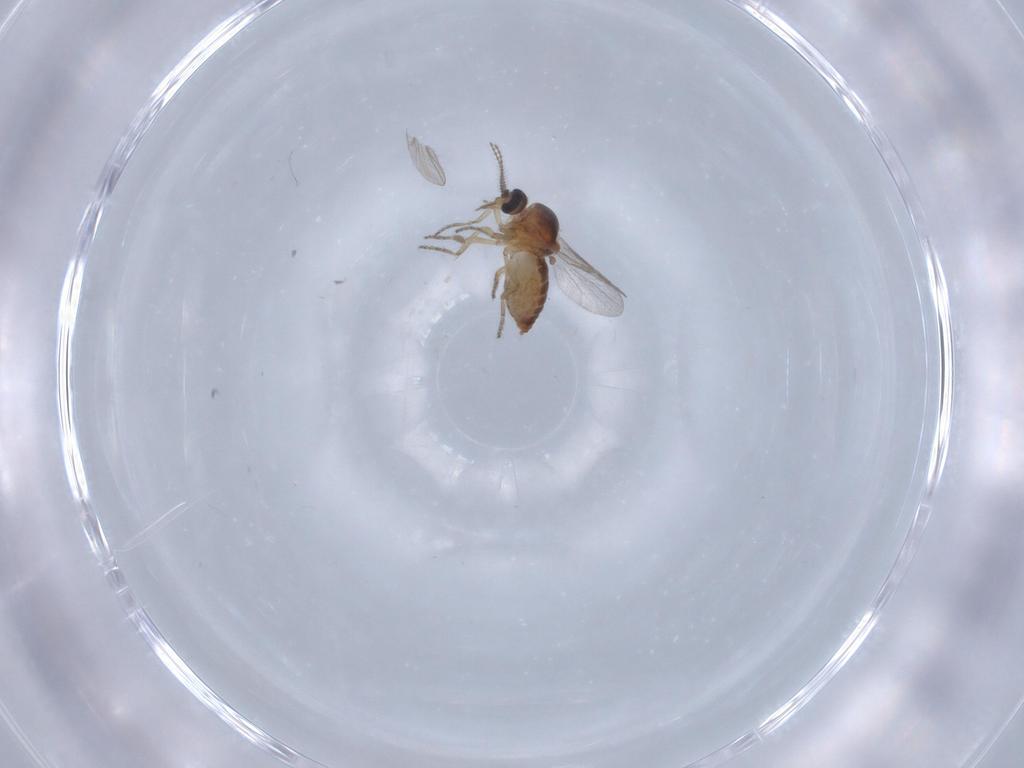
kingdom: Animalia
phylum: Arthropoda
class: Insecta
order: Diptera
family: Ceratopogonidae
